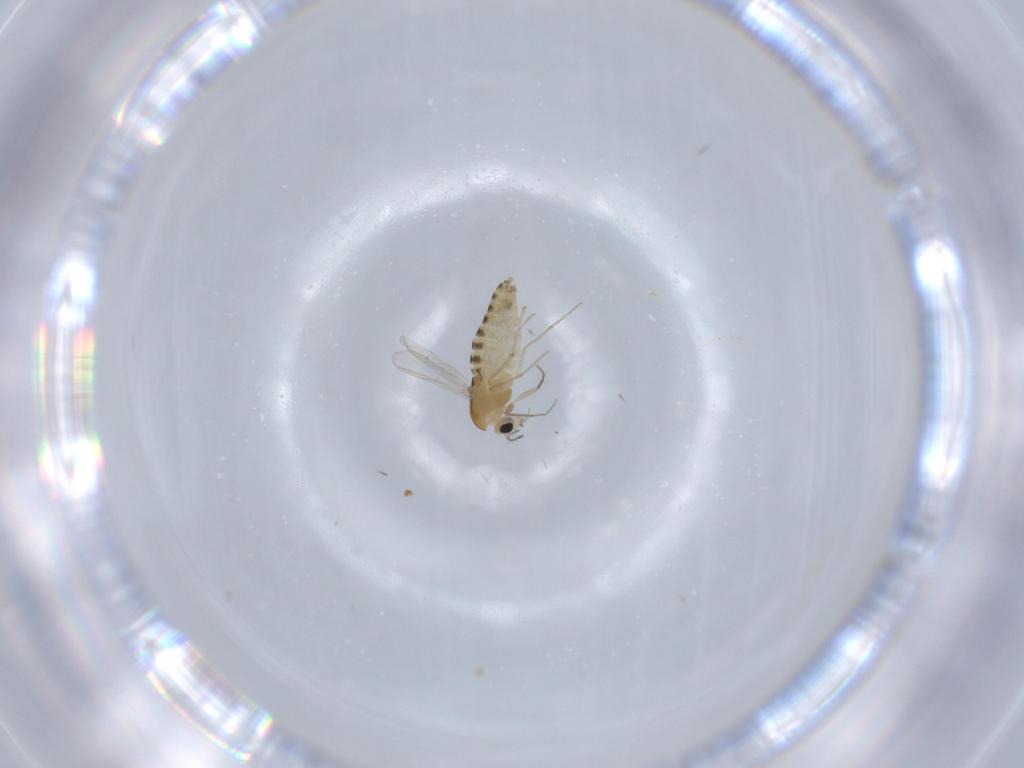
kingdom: Animalia
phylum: Arthropoda
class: Insecta
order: Diptera
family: Chironomidae
